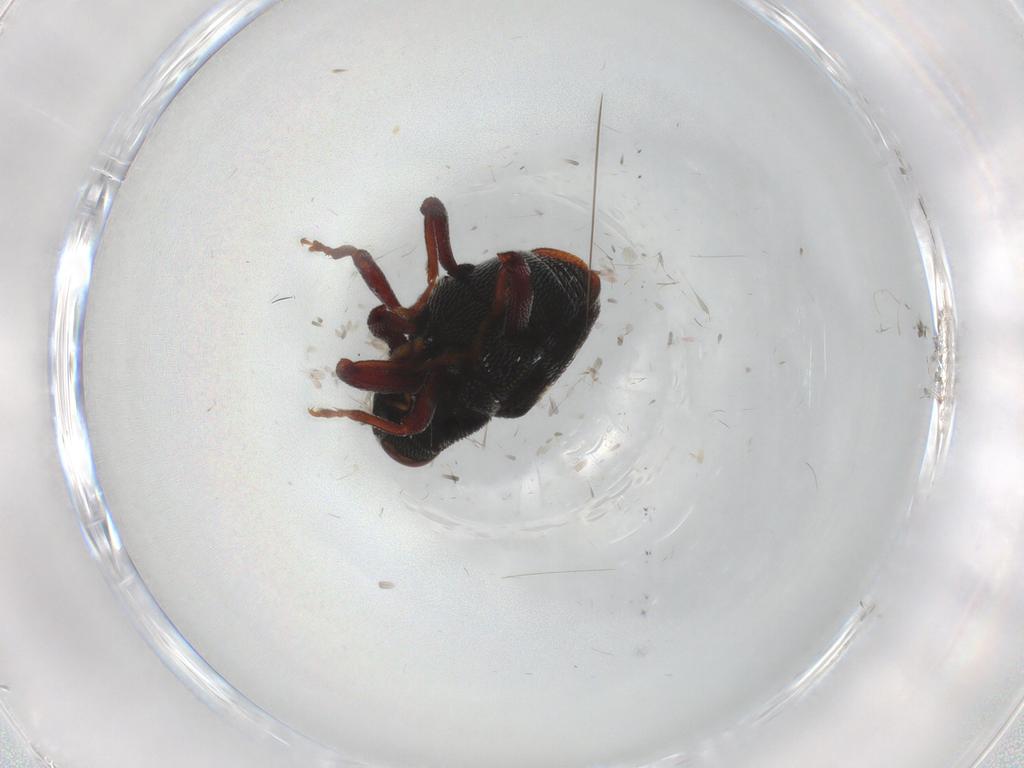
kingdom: Animalia
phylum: Arthropoda
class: Insecta
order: Coleoptera
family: Mordellidae
